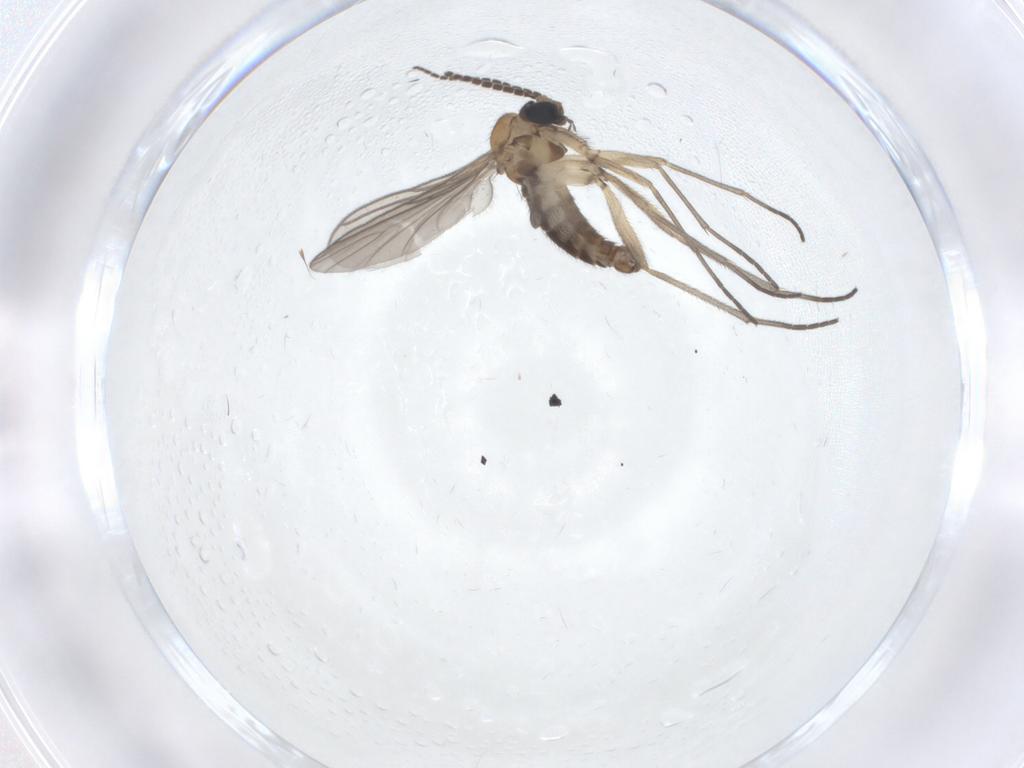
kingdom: Animalia
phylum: Arthropoda
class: Insecta
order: Diptera
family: Sciaridae
